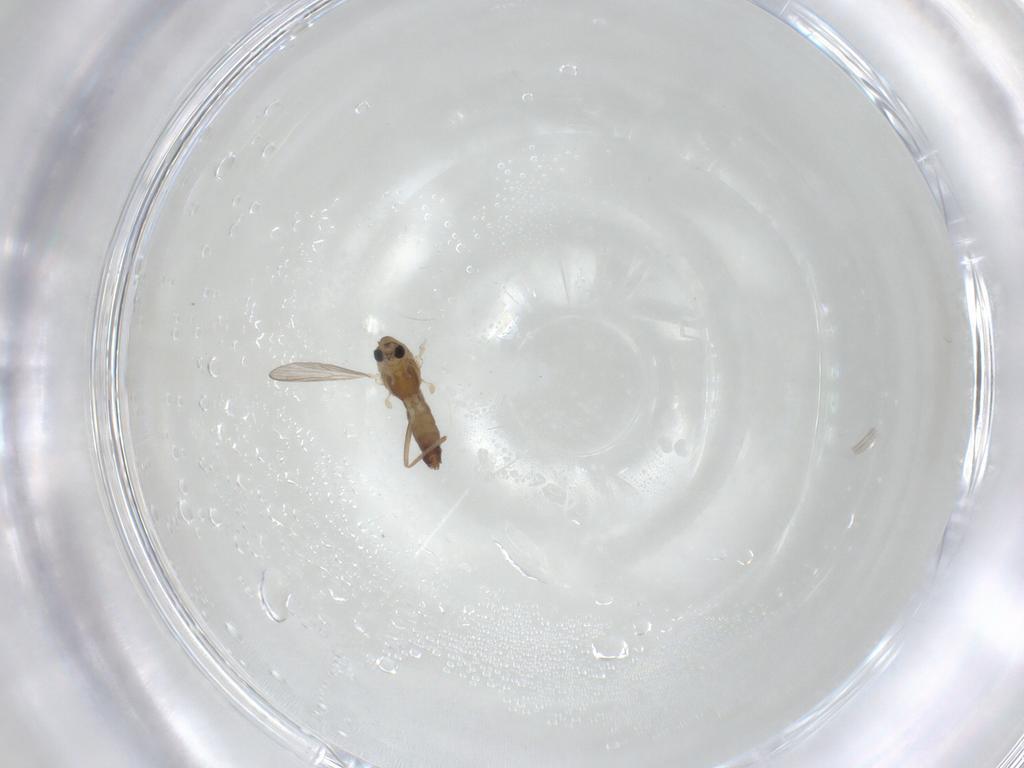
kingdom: Animalia
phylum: Arthropoda
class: Insecta
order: Diptera
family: Chironomidae
